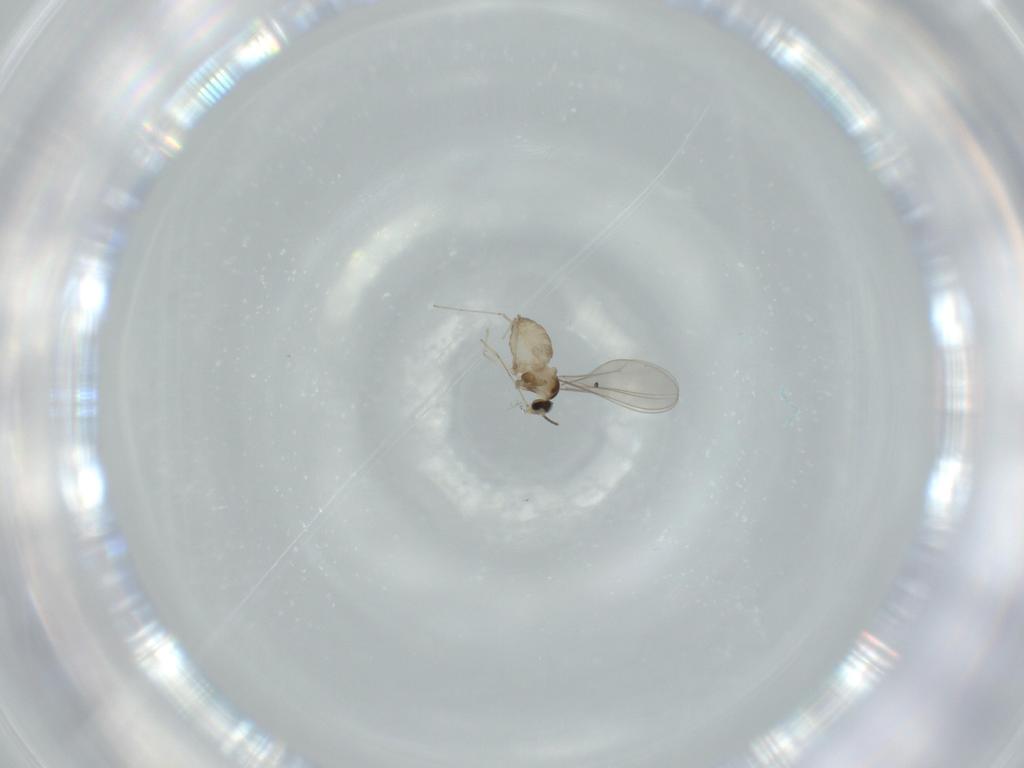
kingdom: Animalia
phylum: Arthropoda
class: Insecta
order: Diptera
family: Cecidomyiidae
